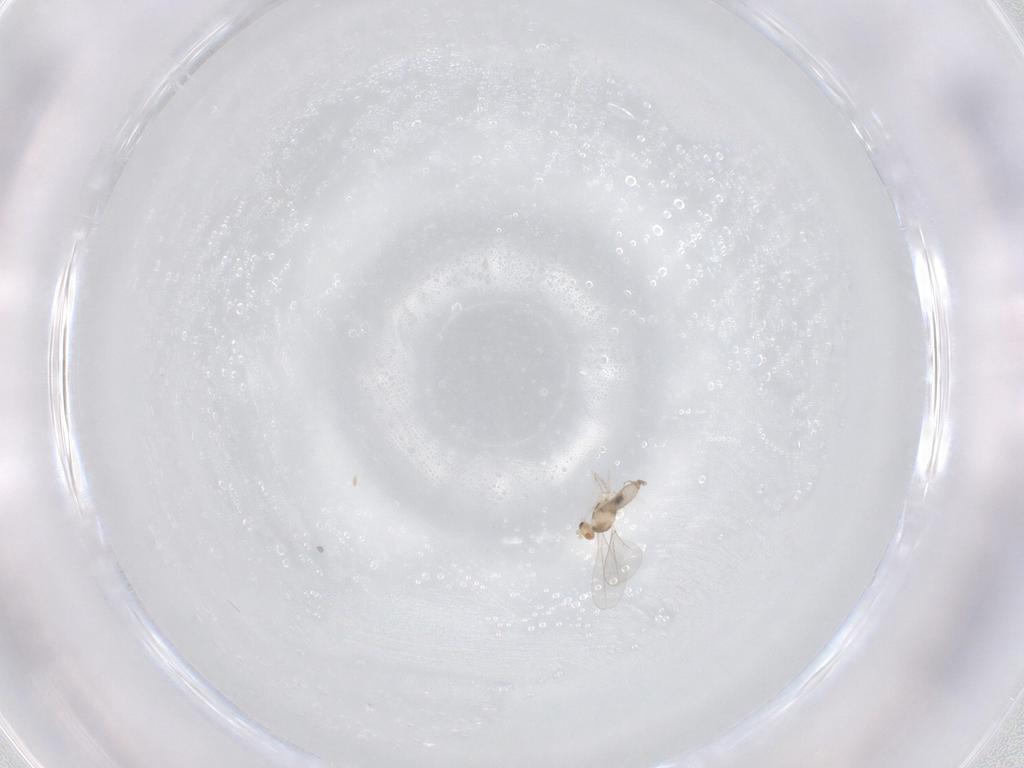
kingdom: Animalia
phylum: Arthropoda
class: Insecta
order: Diptera
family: Cecidomyiidae
